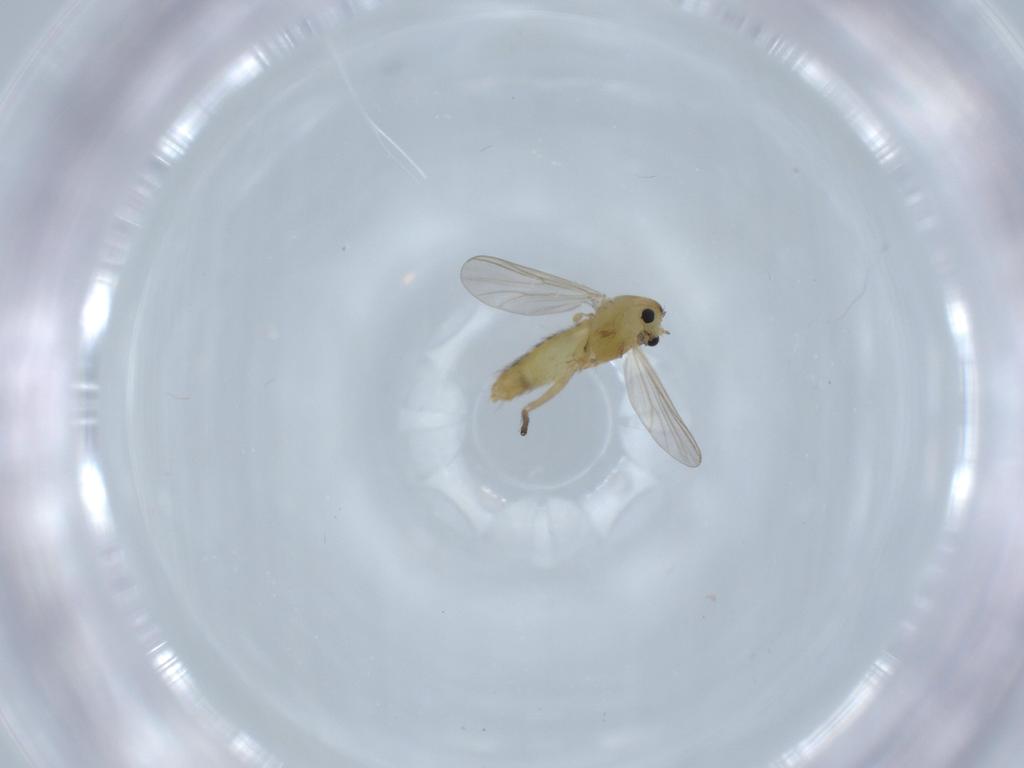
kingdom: Animalia
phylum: Arthropoda
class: Insecta
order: Diptera
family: Chironomidae
